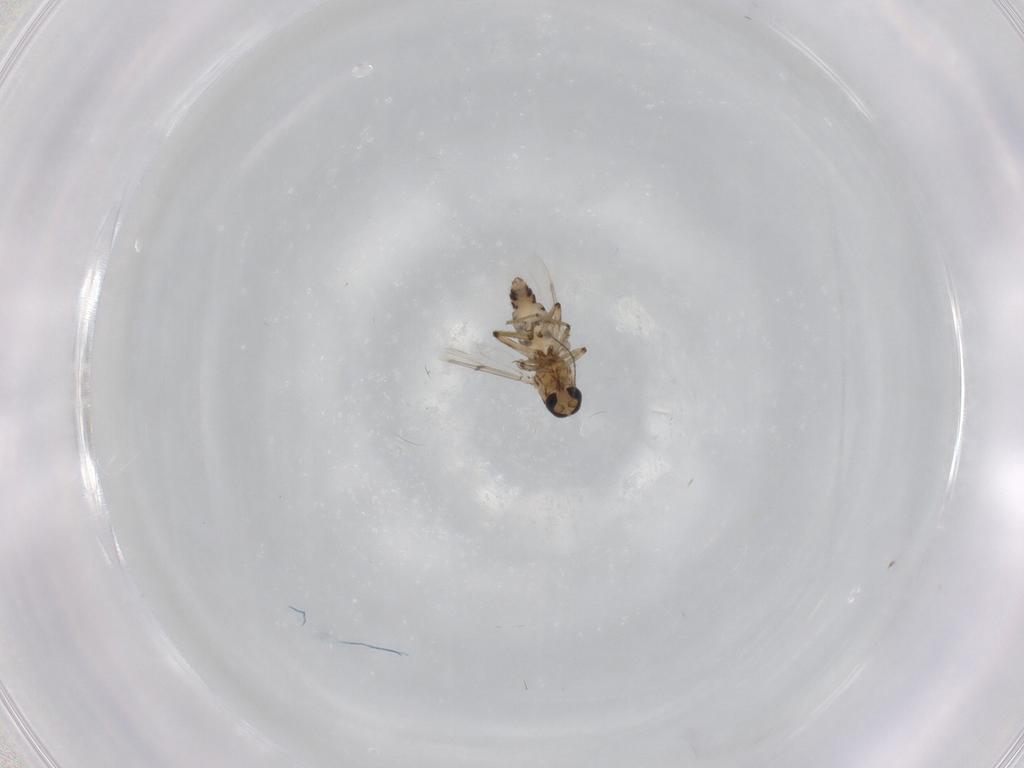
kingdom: Animalia
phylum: Arthropoda
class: Insecta
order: Diptera
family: Ceratopogonidae
